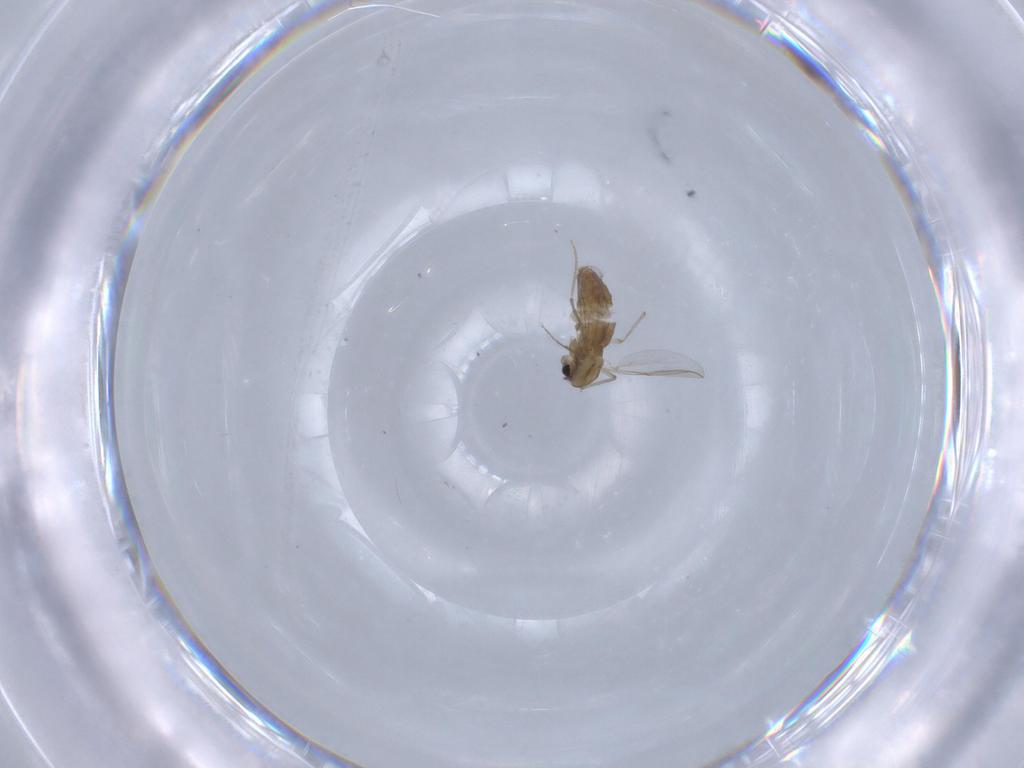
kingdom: Animalia
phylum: Arthropoda
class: Insecta
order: Diptera
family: Chironomidae
